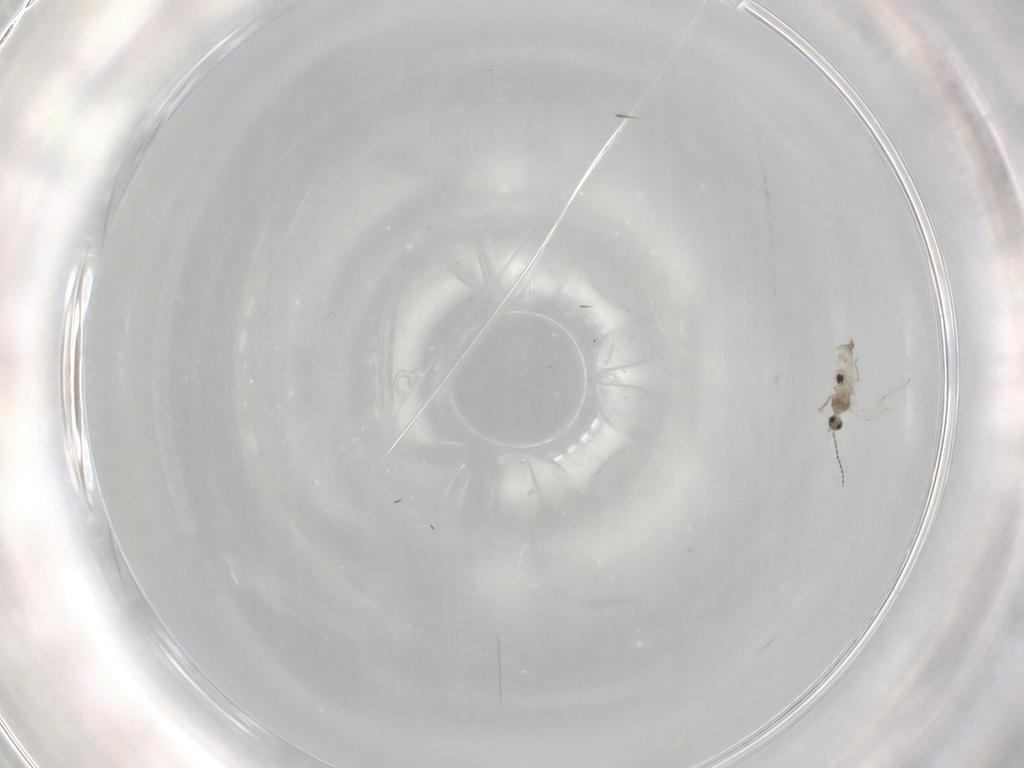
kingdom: Animalia
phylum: Arthropoda
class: Insecta
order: Diptera
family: Cecidomyiidae
